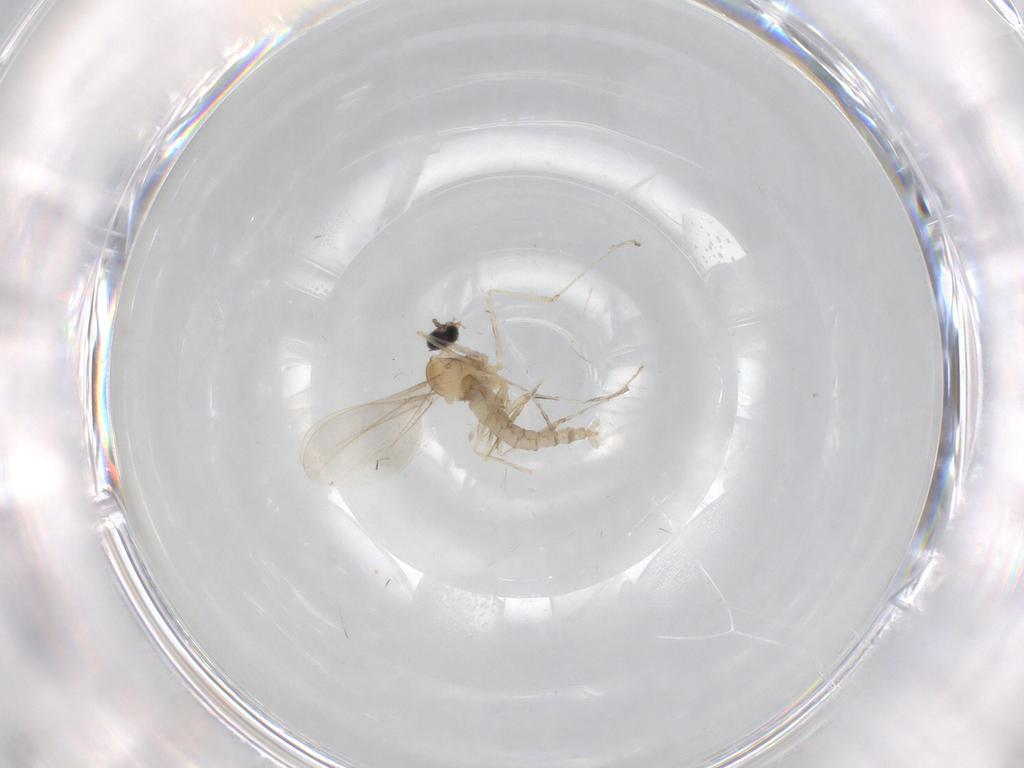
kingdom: Animalia
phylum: Arthropoda
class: Insecta
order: Diptera
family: Cecidomyiidae
